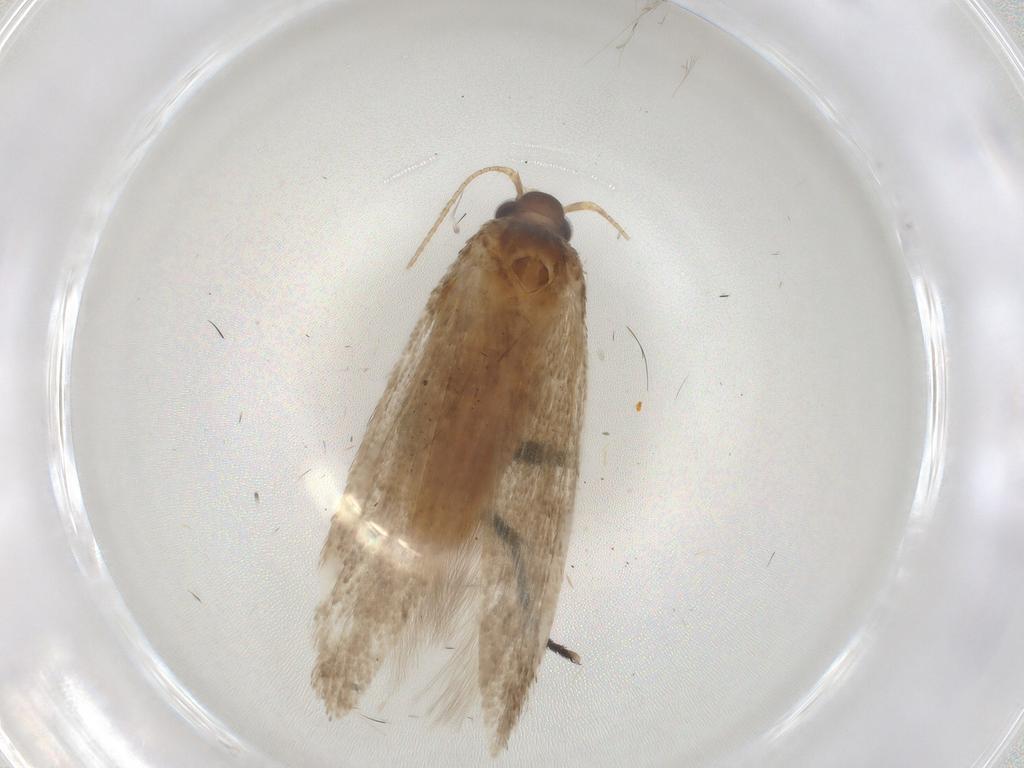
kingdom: Animalia
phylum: Arthropoda
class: Insecta
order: Lepidoptera
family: Coleophoridae
